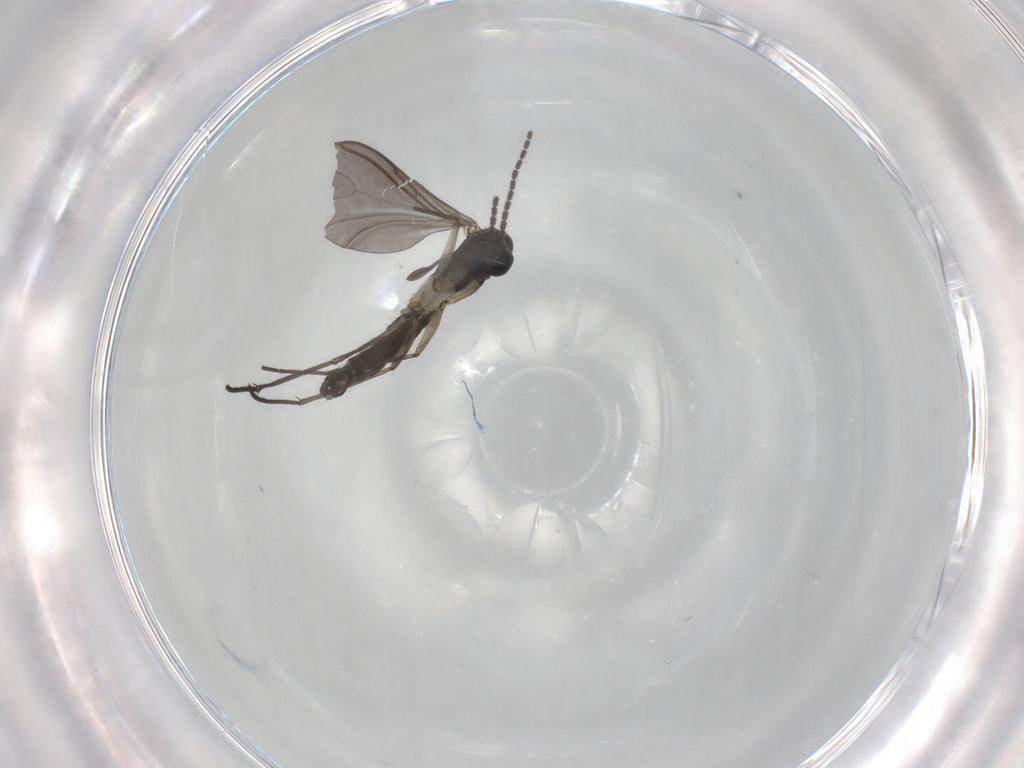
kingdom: Animalia
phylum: Arthropoda
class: Insecta
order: Diptera
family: Sciaridae
